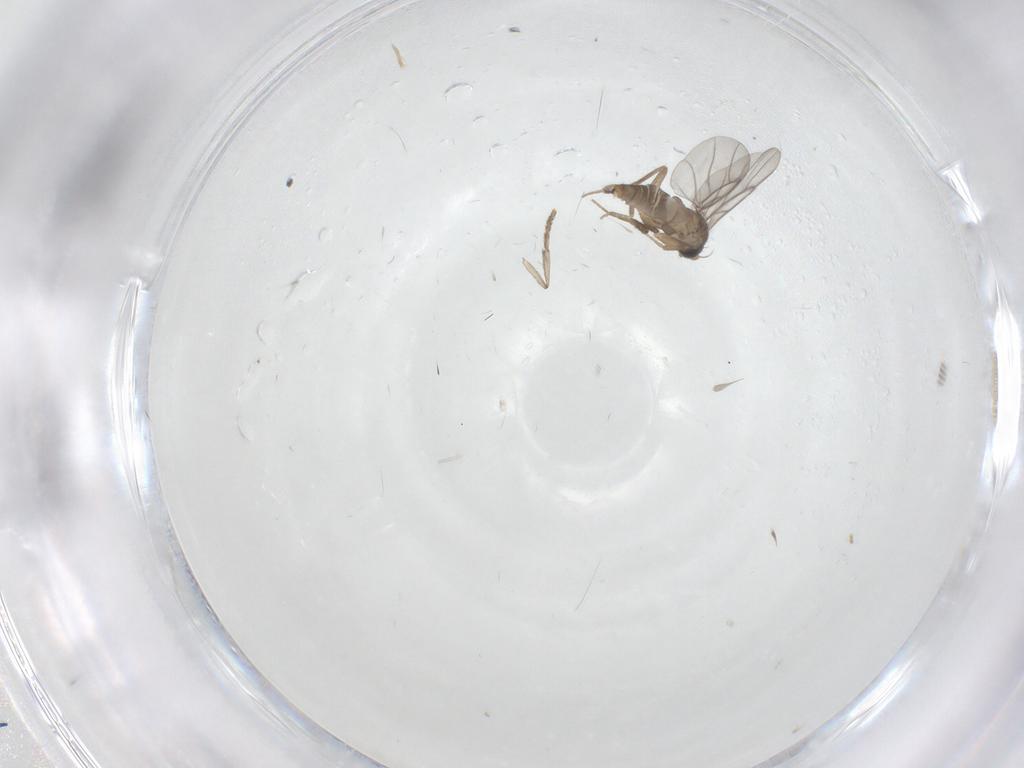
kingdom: Animalia
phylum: Arthropoda
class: Insecta
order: Diptera
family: Psychodidae
